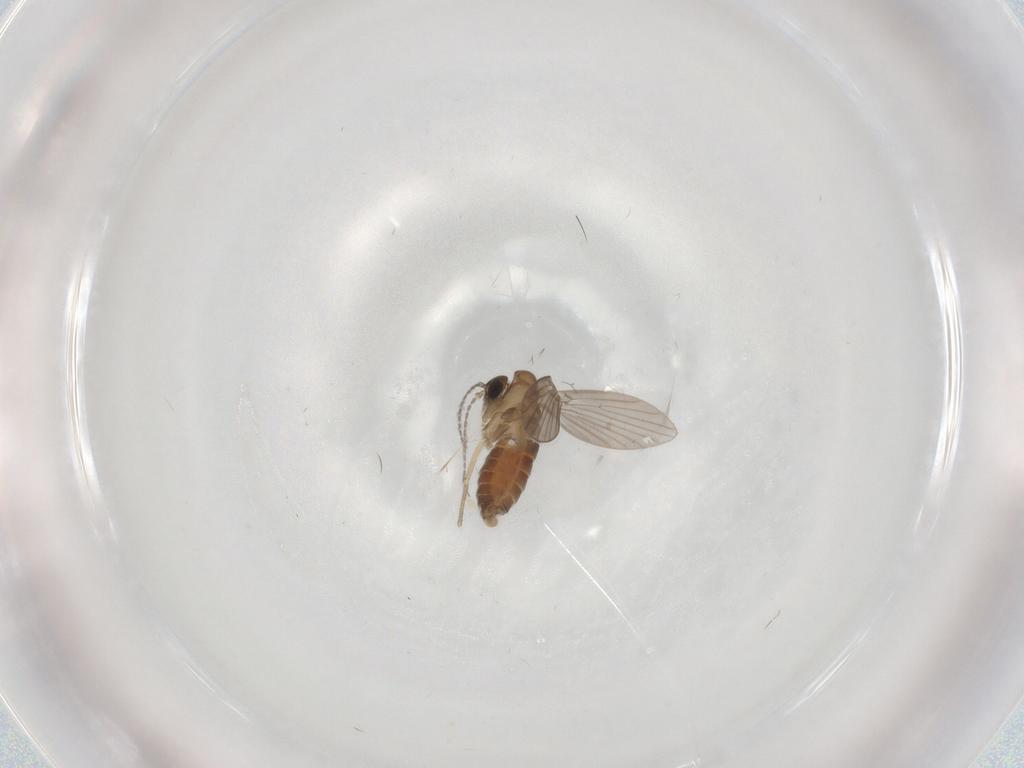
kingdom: Animalia
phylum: Arthropoda
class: Insecta
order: Diptera
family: Phoridae
